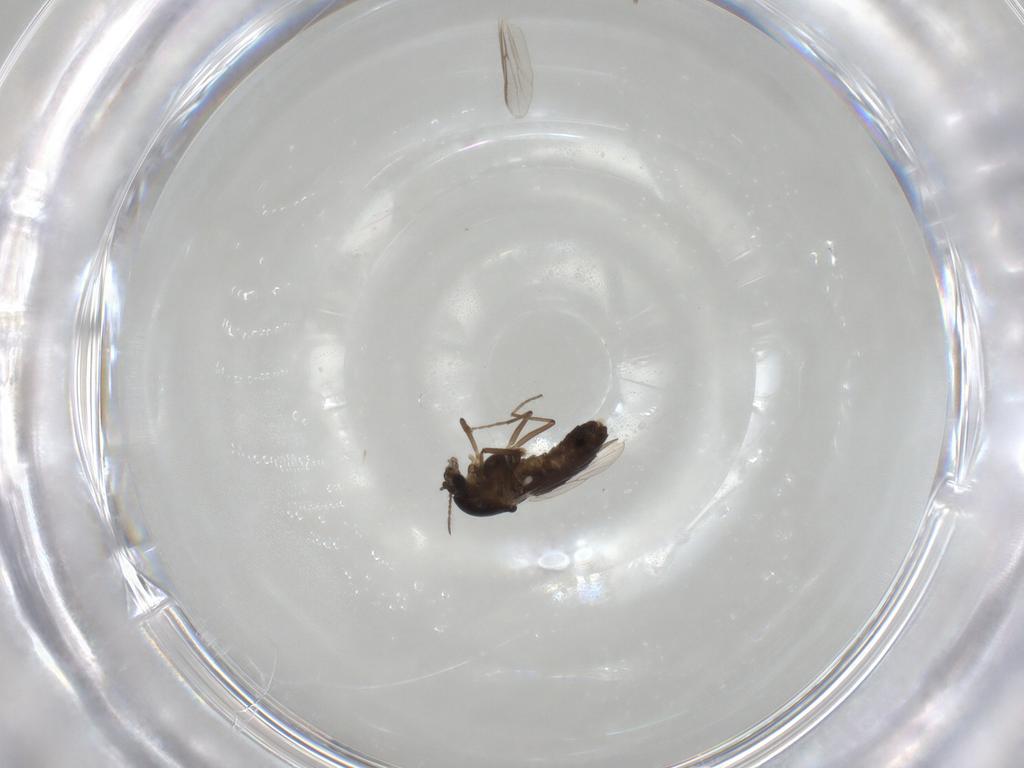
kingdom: Animalia
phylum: Arthropoda
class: Insecta
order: Diptera
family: Chironomidae
